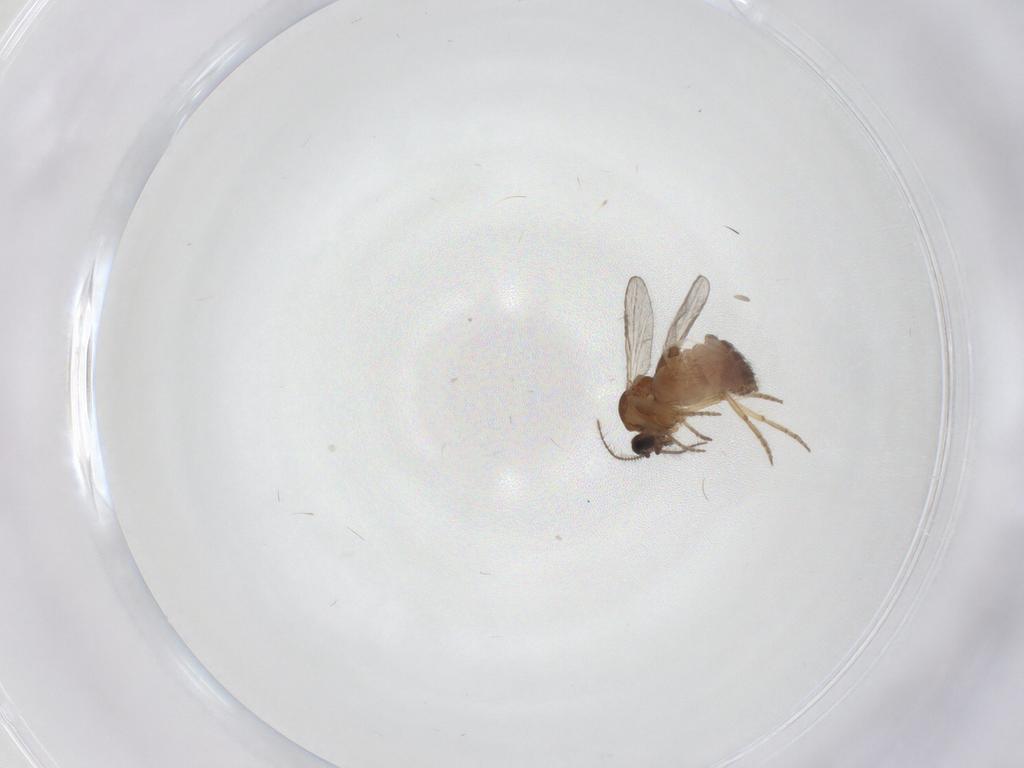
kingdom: Animalia
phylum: Arthropoda
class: Insecta
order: Diptera
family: Ceratopogonidae
